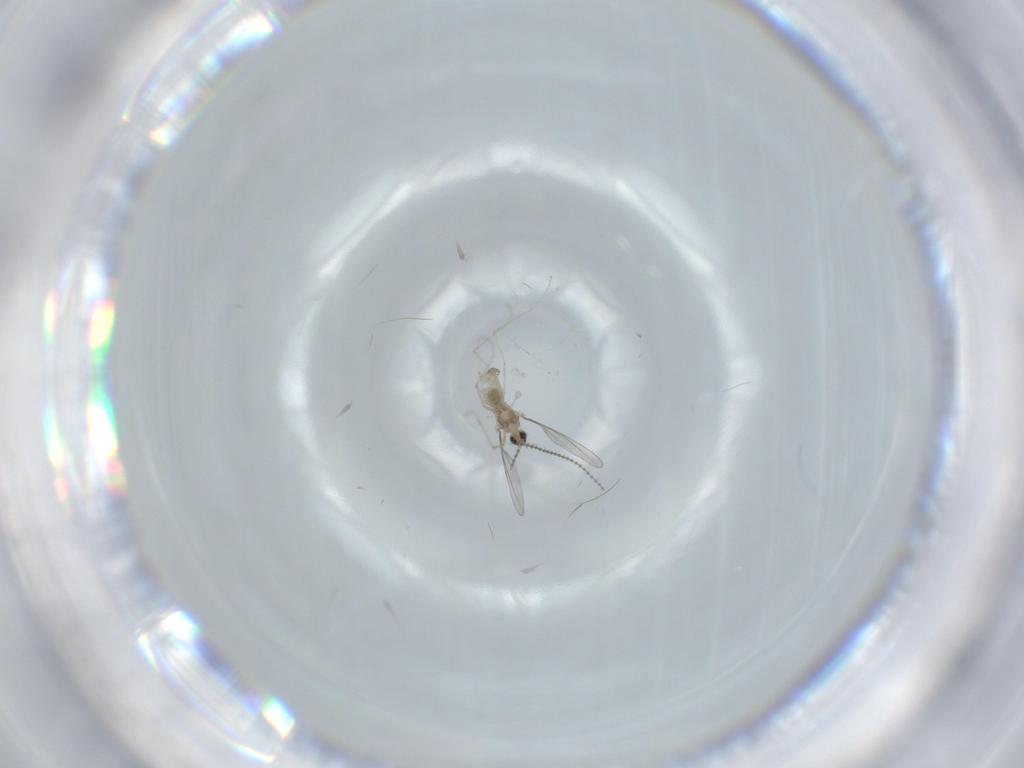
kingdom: Animalia
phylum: Arthropoda
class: Insecta
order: Diptera
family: Cecidomyiidae
